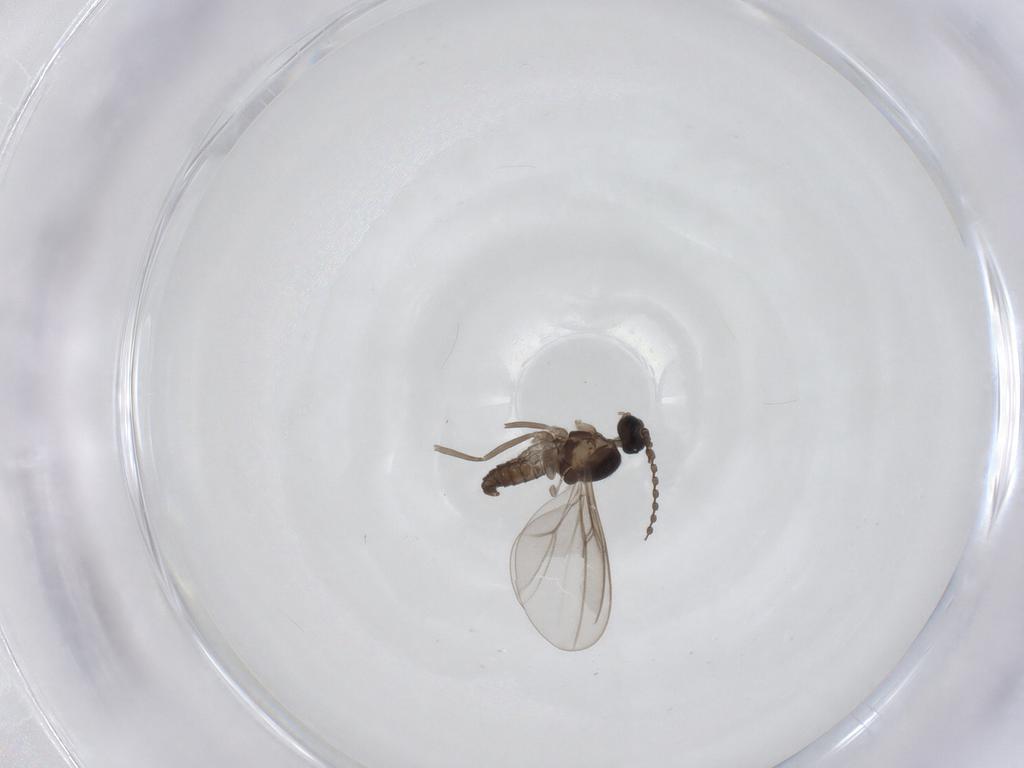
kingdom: Animalia
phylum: Arthropoda
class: Insecta
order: Diptera
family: Cecidomyiidae
